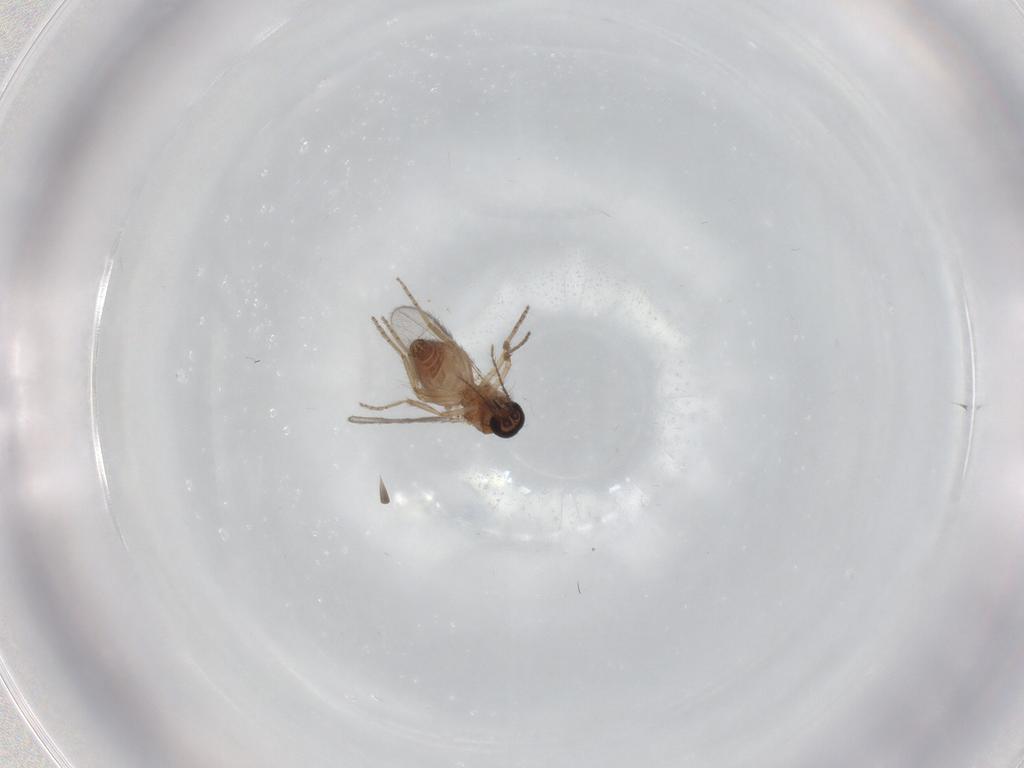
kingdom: Animalia
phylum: Arthropoda
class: Insecta
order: Diptera
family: Ceratopogonidae
